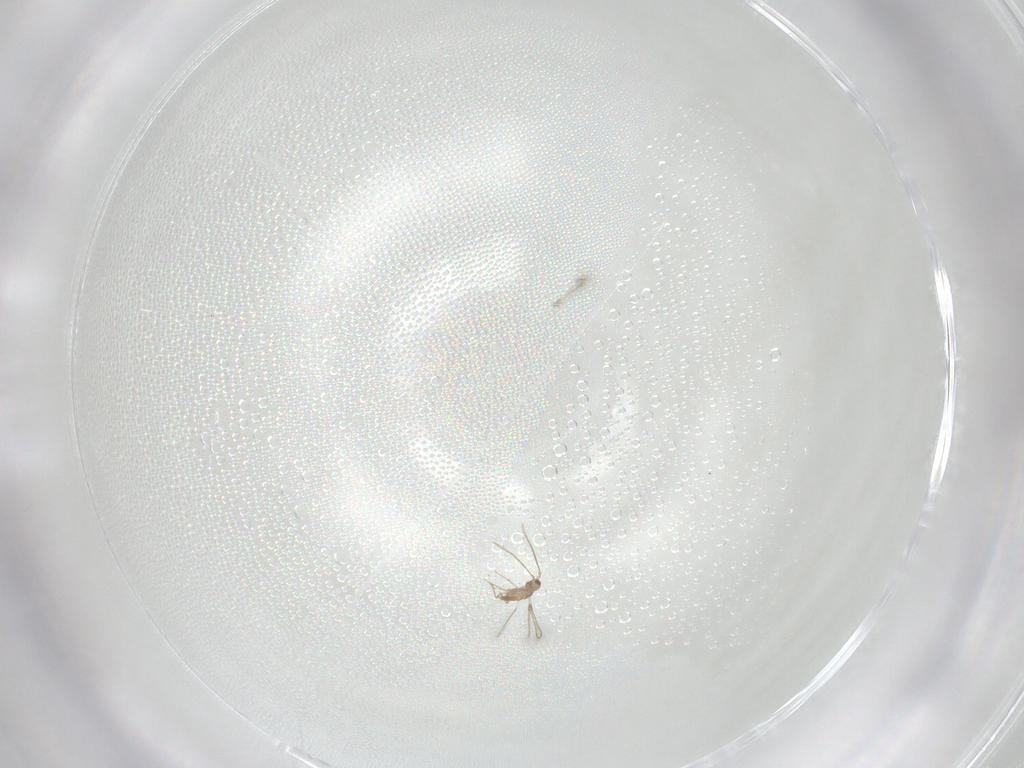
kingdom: Animalia
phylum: Arthropoda
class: Insecta
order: Hymenoptera
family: Mymaridae
